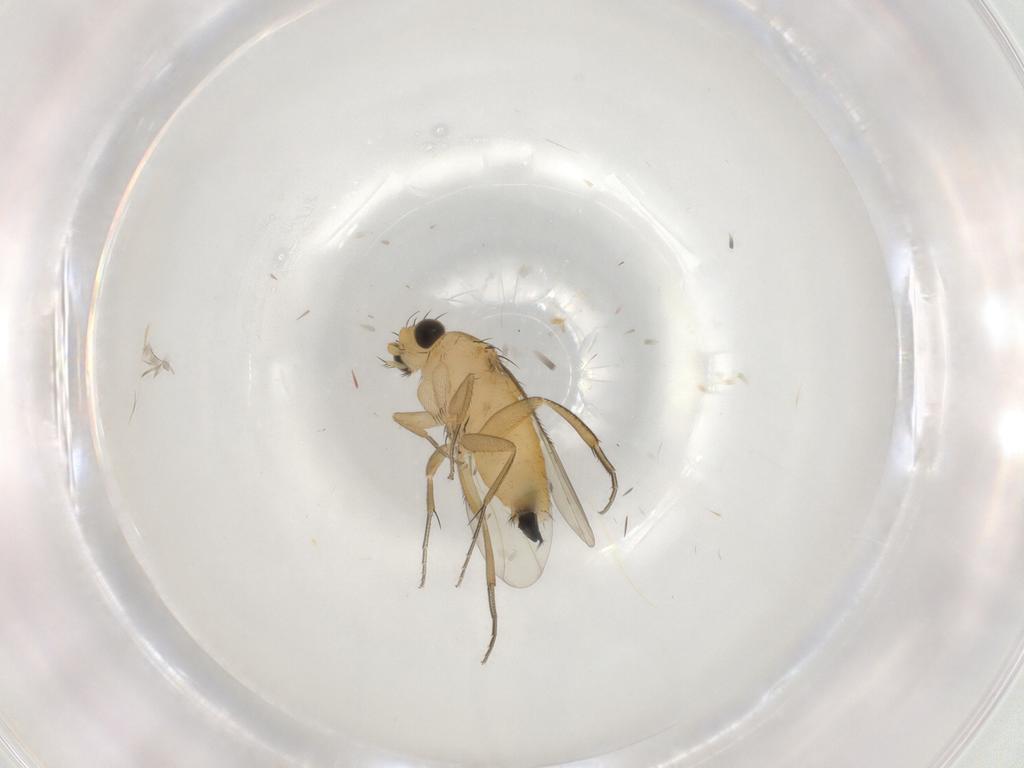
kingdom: Animalia
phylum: Arthropoda
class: Insecta
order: Diptera
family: Phoridae
